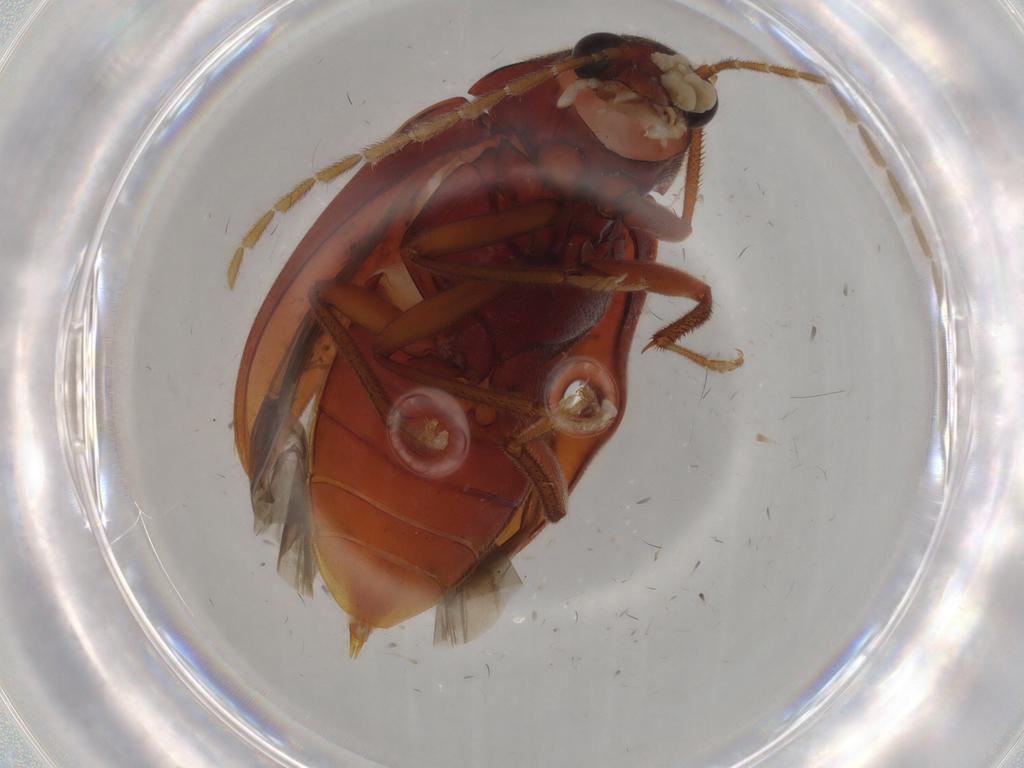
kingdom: Animalia
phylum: Arthropoda
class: Insecta
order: Coleoptera
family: Ptilodactylidae
